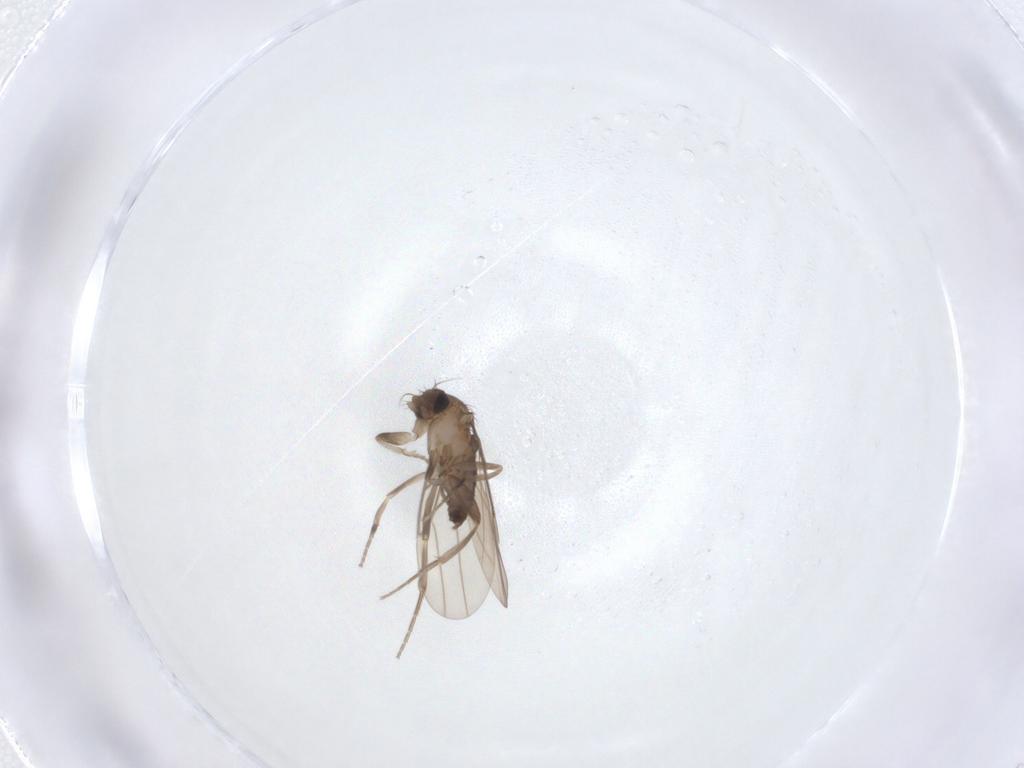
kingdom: Animalia
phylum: Arthropoda
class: Insecta
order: Diptera
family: Phoridae
